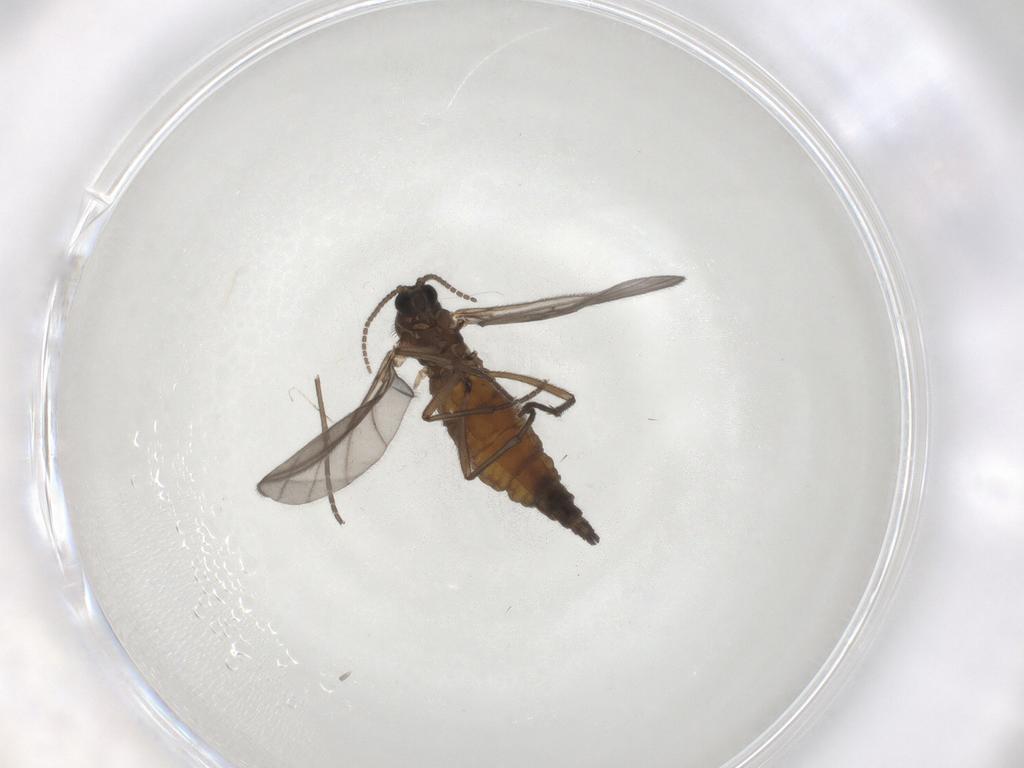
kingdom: Animalia
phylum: Arthropoda
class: Insecta
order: Diptera
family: Sciaridae
